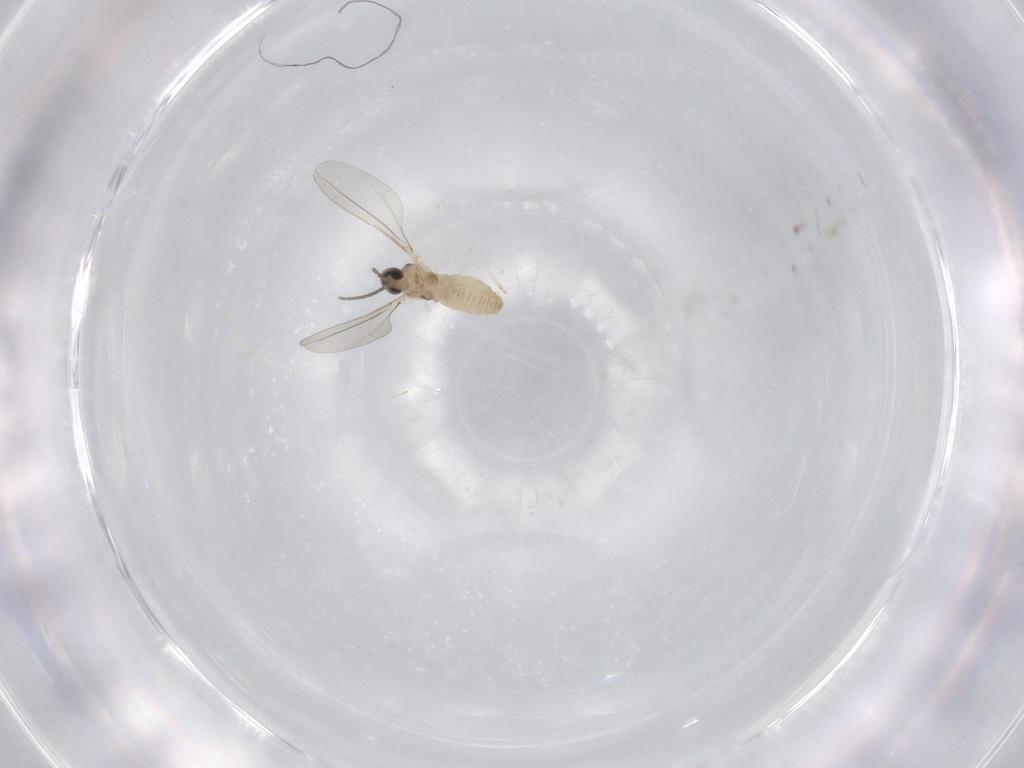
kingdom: Animalia
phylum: Arthropoda
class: Insecta
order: Diptera
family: Cecidomyiidae
